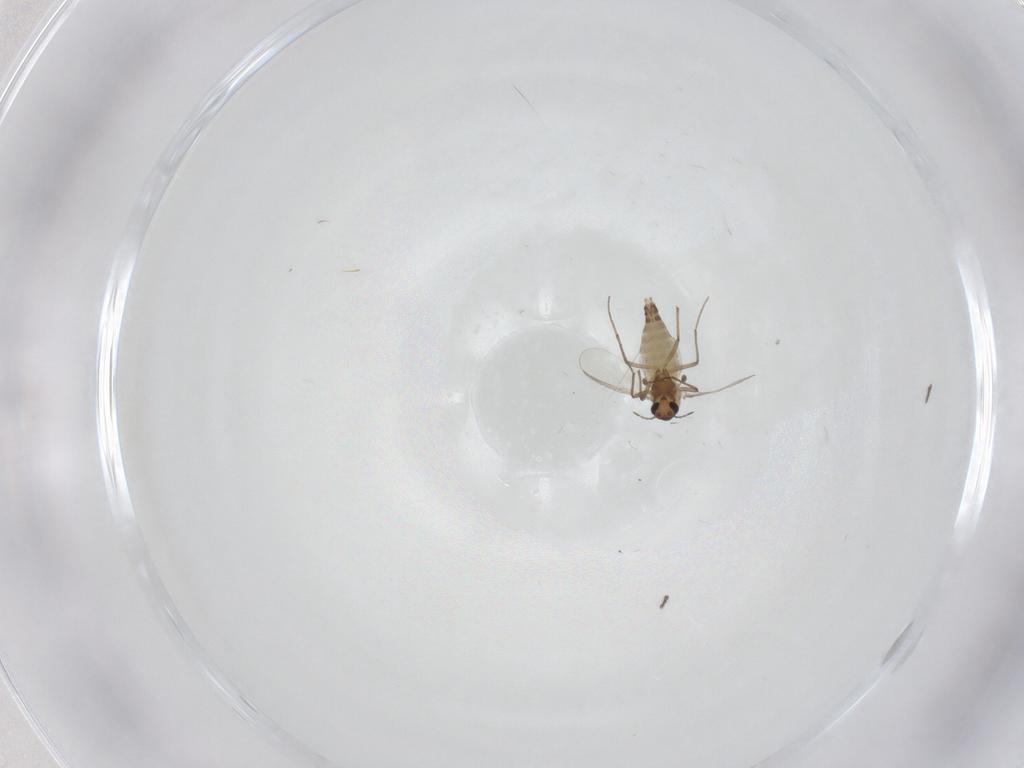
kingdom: Animalia
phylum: Arthropoda
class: Insecta
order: Diptera
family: Chironomidae
